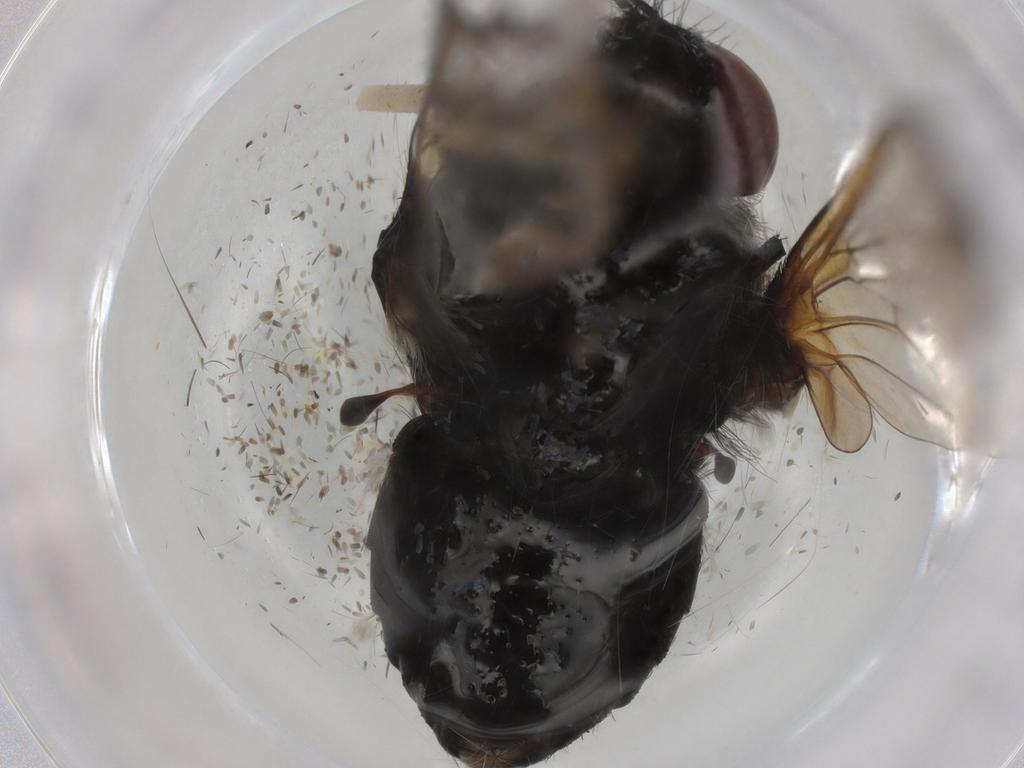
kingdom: Animalia
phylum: Arthropoda
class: Insecta
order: Diptera
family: Bombyliidae
